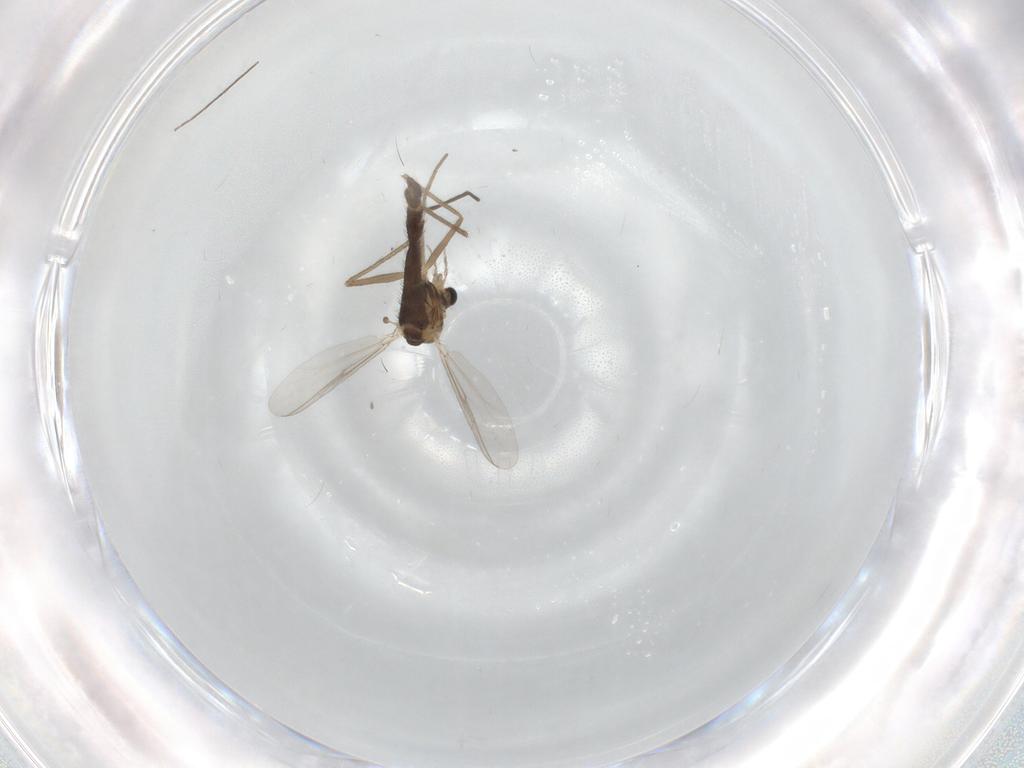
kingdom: Animalia
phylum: Arthropoda
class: Insecta
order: Diptera
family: Chironomidae
